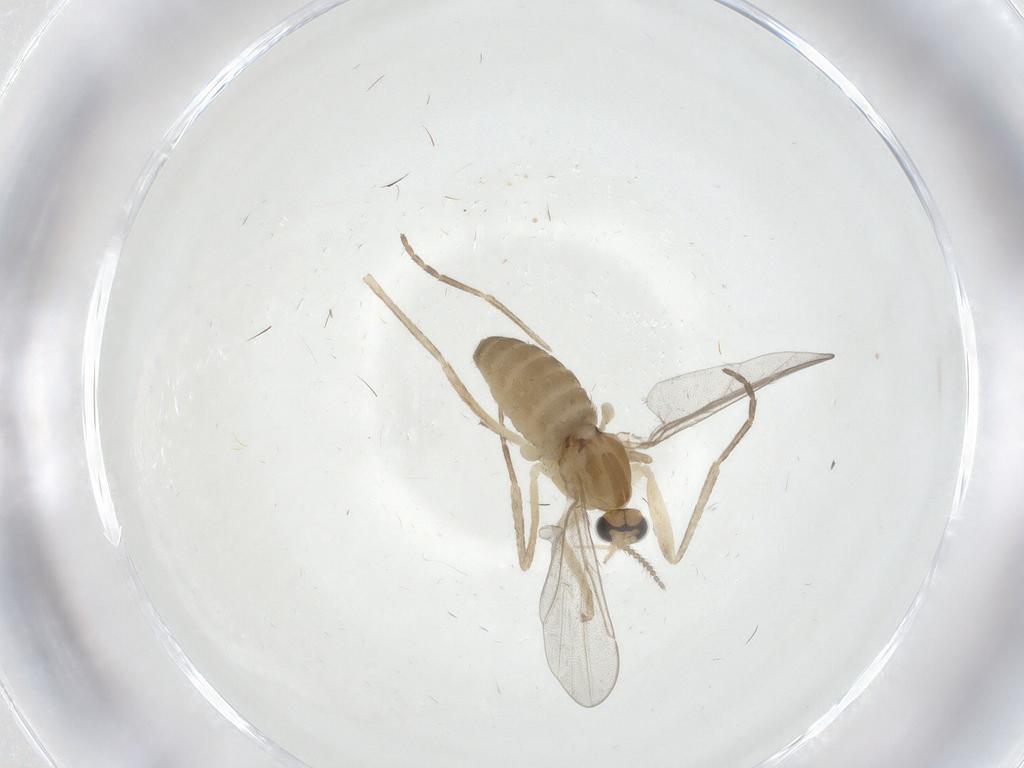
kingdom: Animalia
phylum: Arthropoda
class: Insecta
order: Diptera
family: Cecidomyiidae
